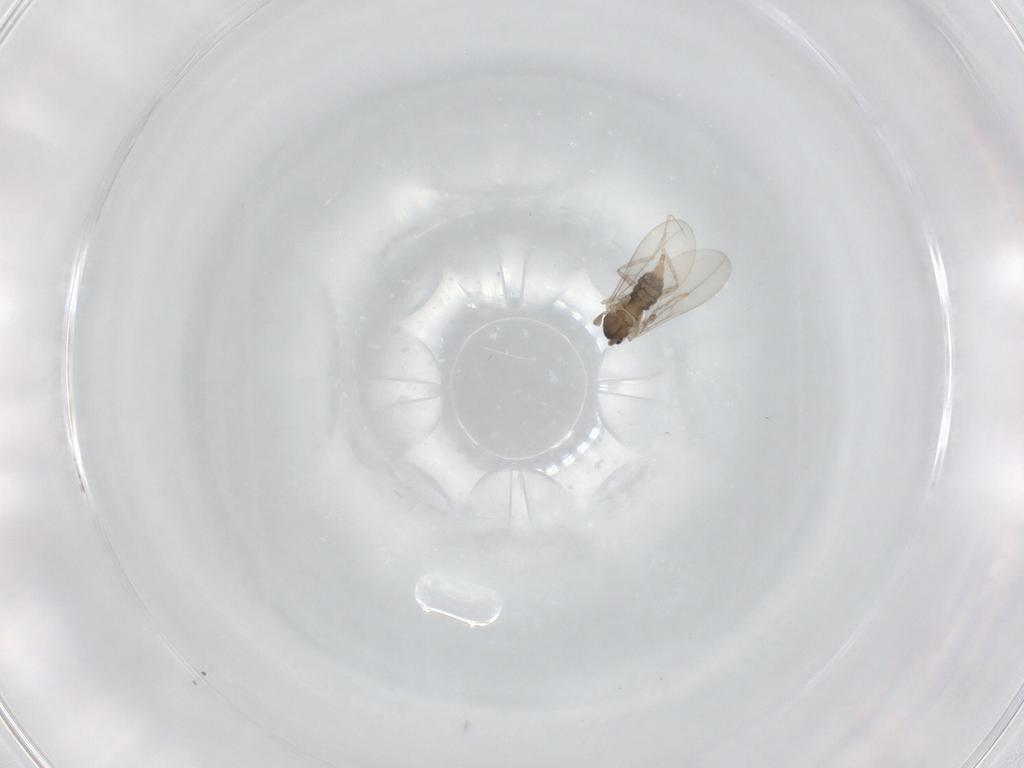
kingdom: Animalia
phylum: Arthropoda
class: Insecta
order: Diptera
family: Cecidomyiidae
